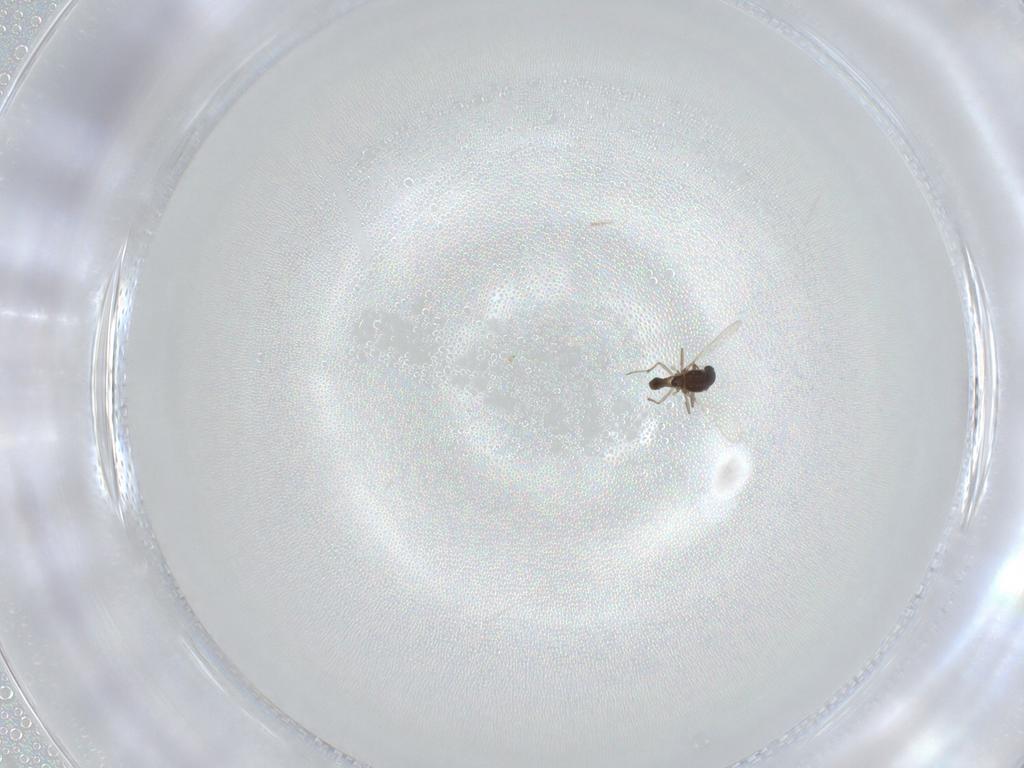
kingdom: Animalia
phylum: Arthropoda
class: Insecta
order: Diptera
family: Chironomidae
